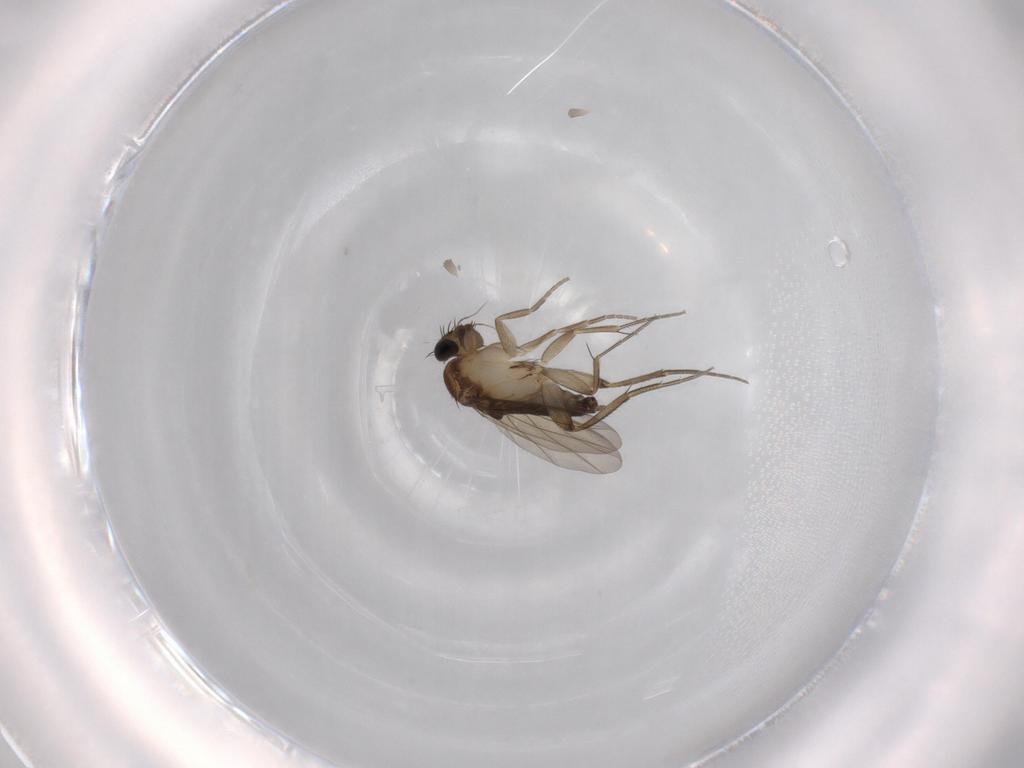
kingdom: Animalia
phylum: Arthropoda
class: Insecta
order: Diptera
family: Phoridae
